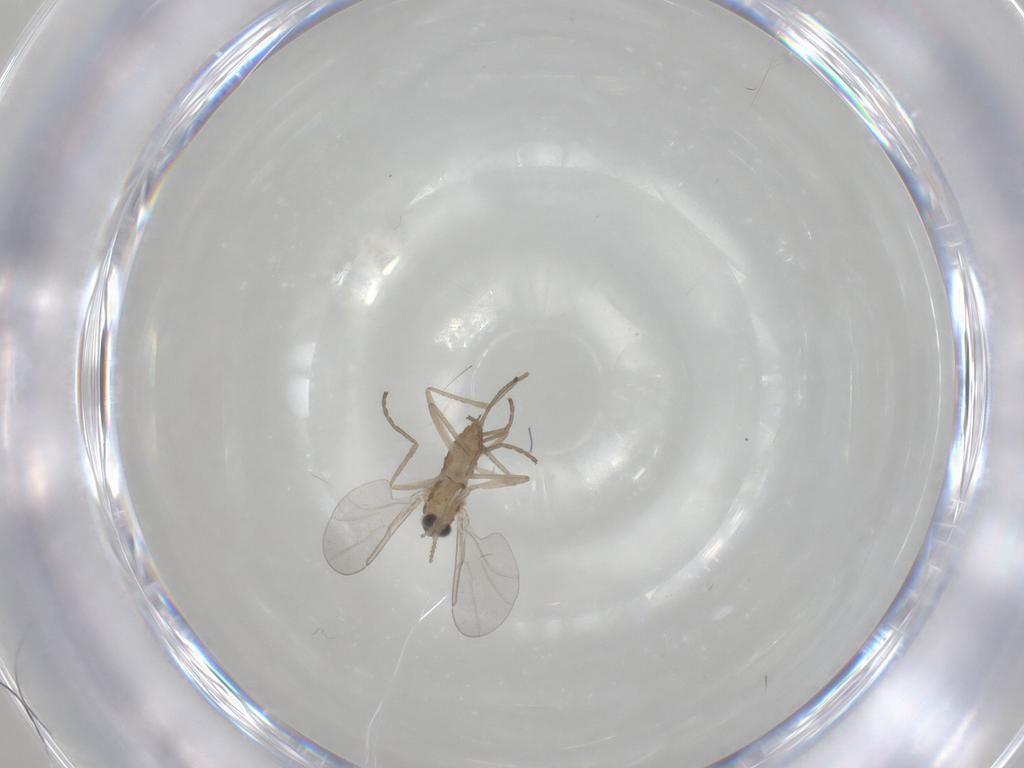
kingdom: Animalia
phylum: Arthropoda
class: Insecta
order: Diptera
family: Cecidomyiidae
